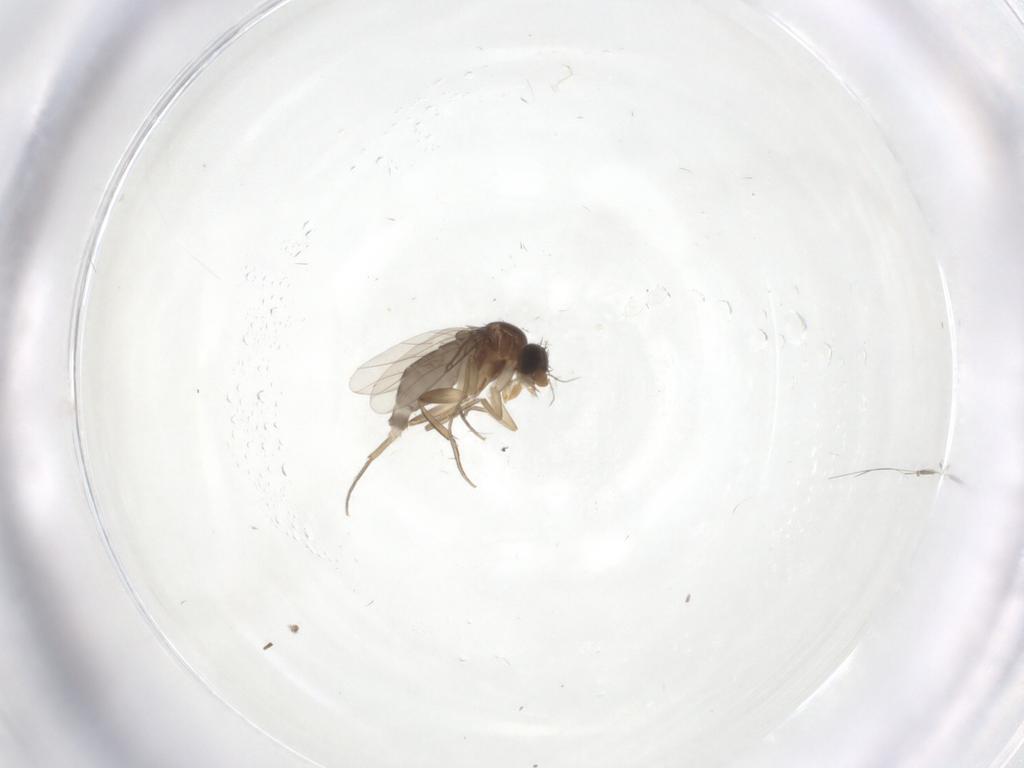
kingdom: Animalia
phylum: Arthropoda
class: Insecta
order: Diptera
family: Phoridae
